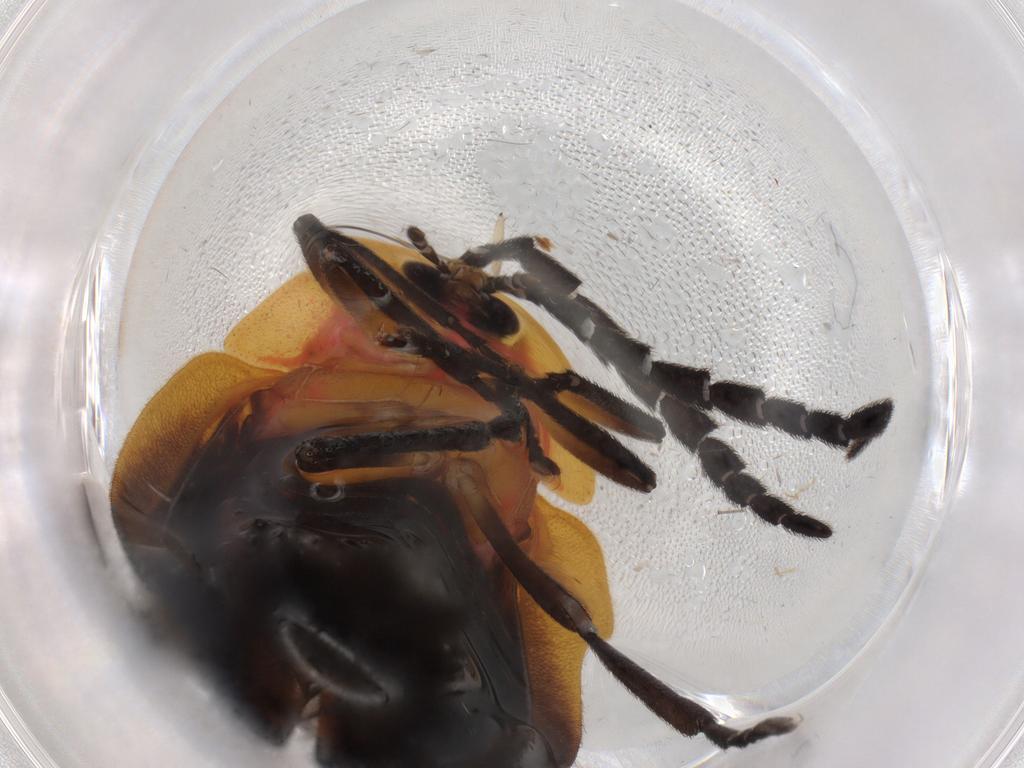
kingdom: Animalia
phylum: Arthropoda
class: Insecta
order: Coleoptera
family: Lampyridae
